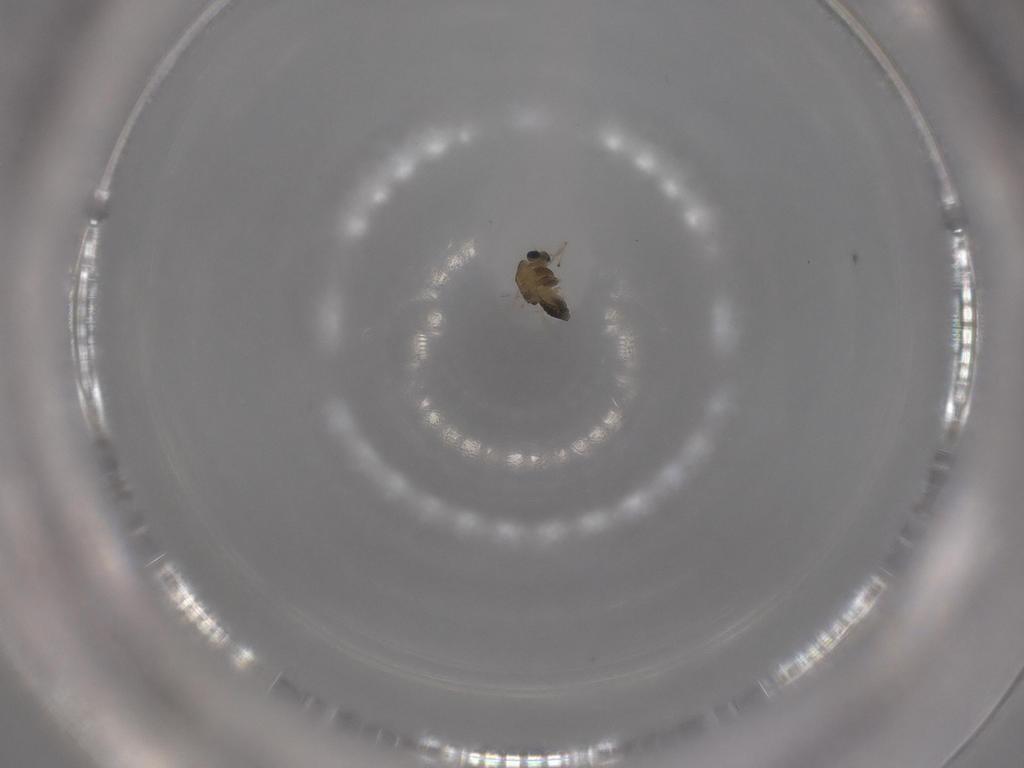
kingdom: Animalia
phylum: Arthropoda
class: Insecta
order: Diptera
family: Chironomidae
